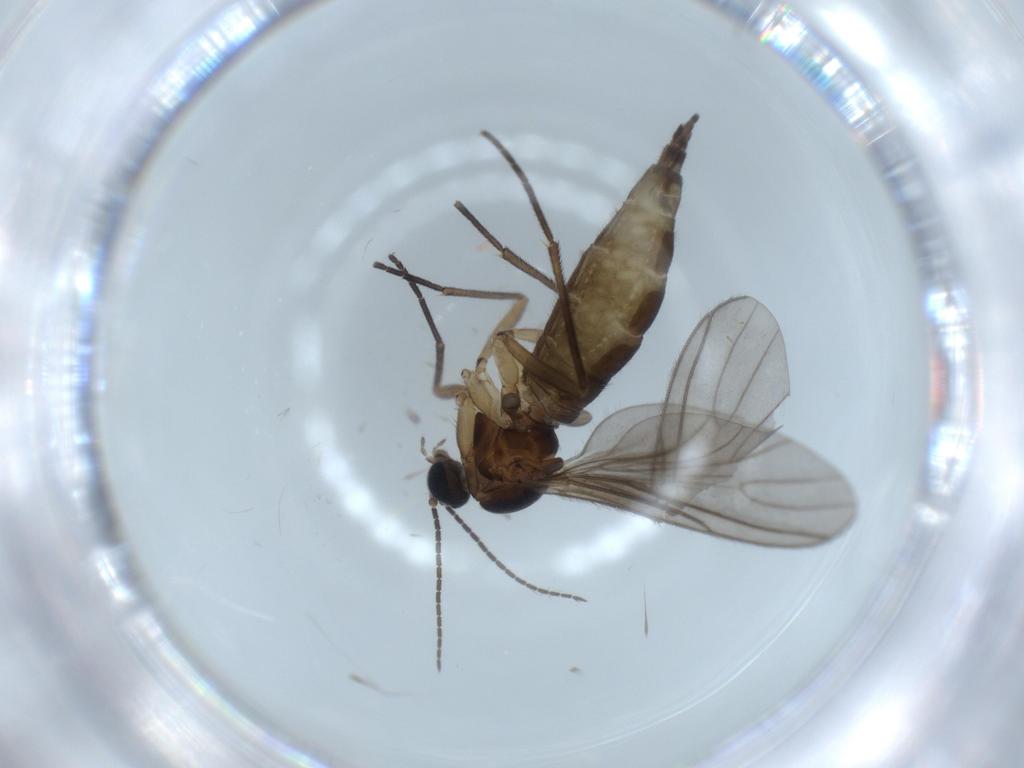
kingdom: Animalia
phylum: Arthropoda
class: Insecta
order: Diptera
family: Sciaridae
